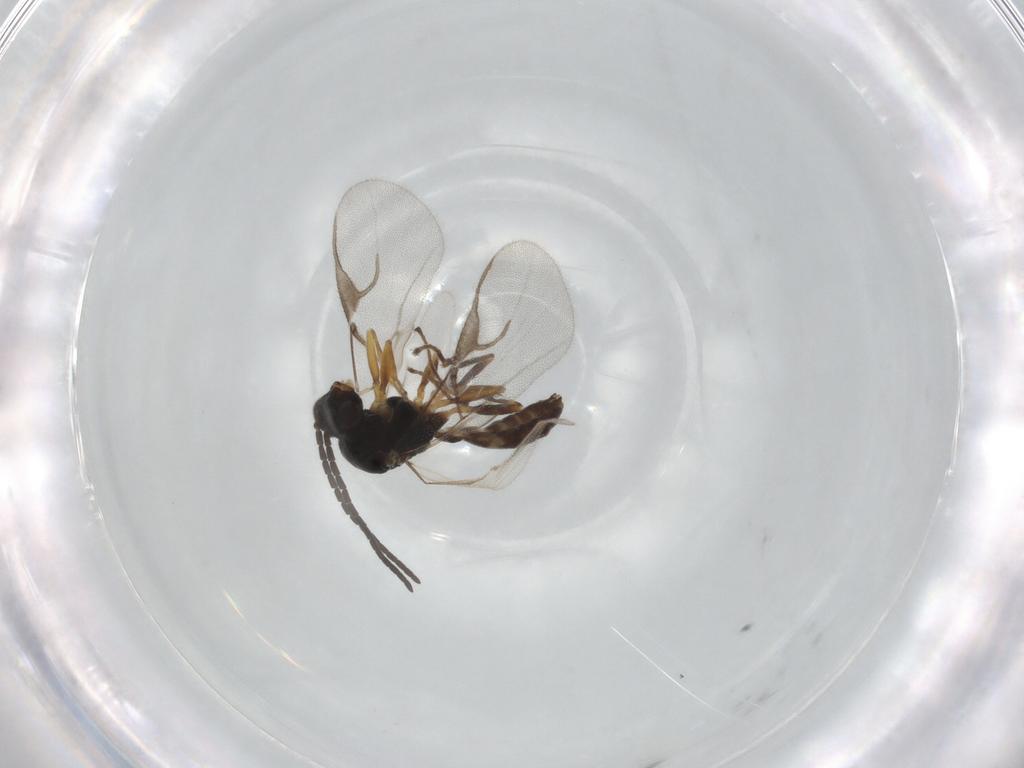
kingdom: Animalia
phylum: Arthropoda
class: Insecta
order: Hymenoptera
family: Braconidae
